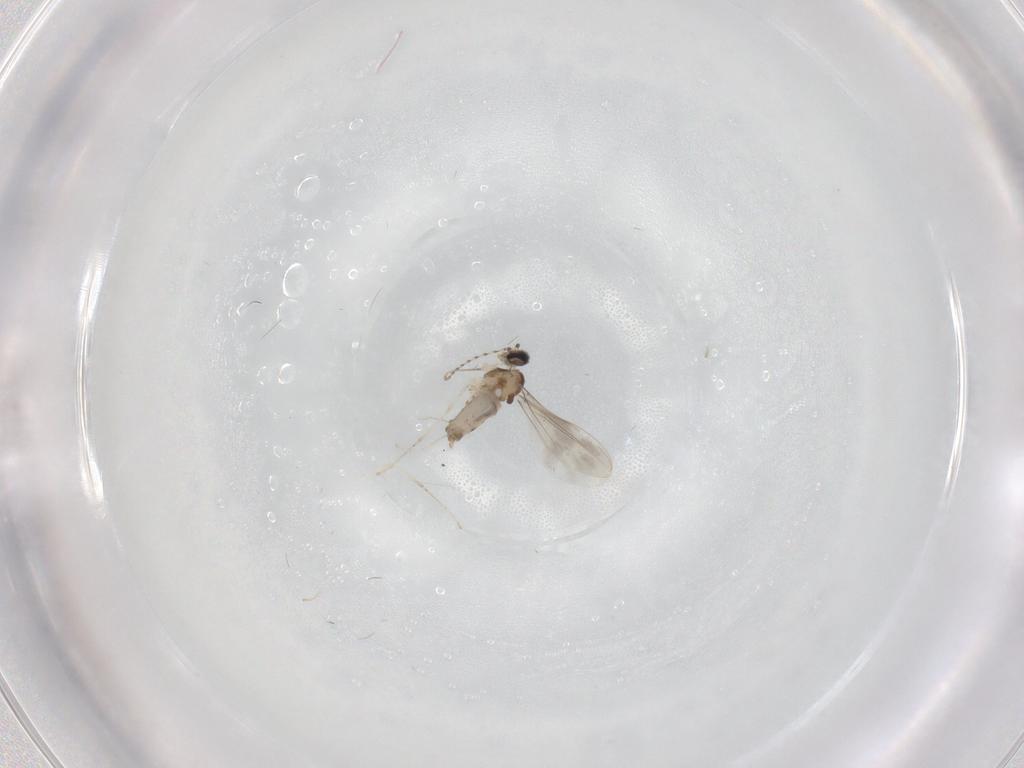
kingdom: Animalia
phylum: Arthropoda
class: Insecta
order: Diptera
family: Cecidomyiidae
